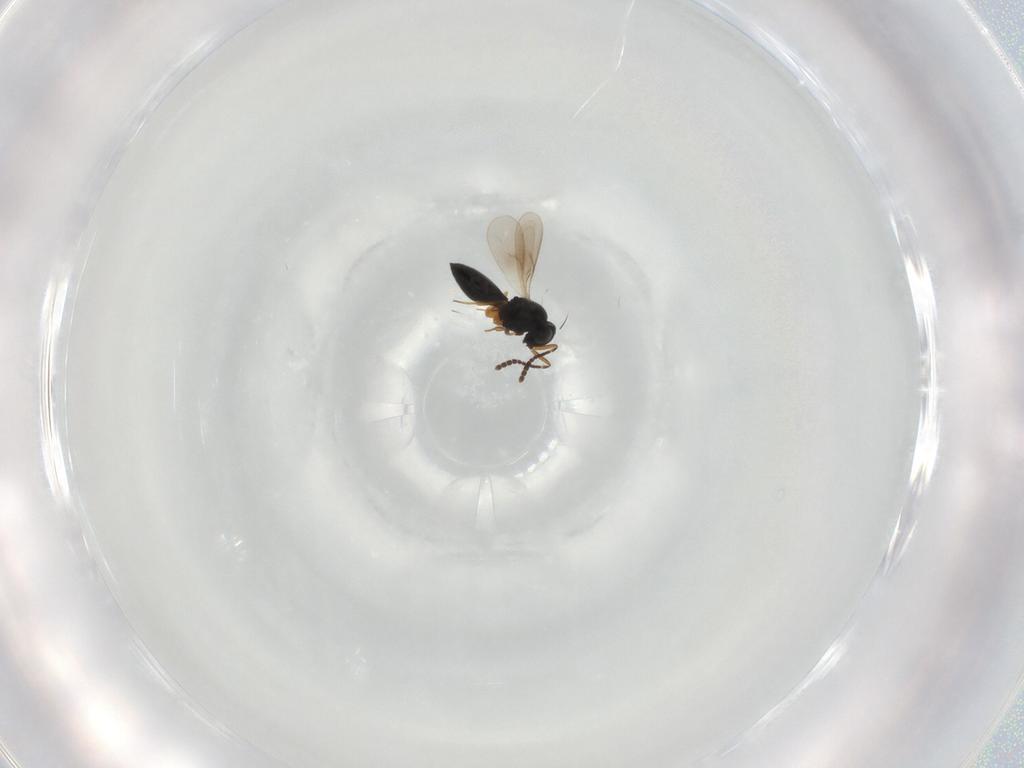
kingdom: Animalia
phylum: Arthropoda
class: Insecta
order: Hymenoptera
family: Scelionidae
